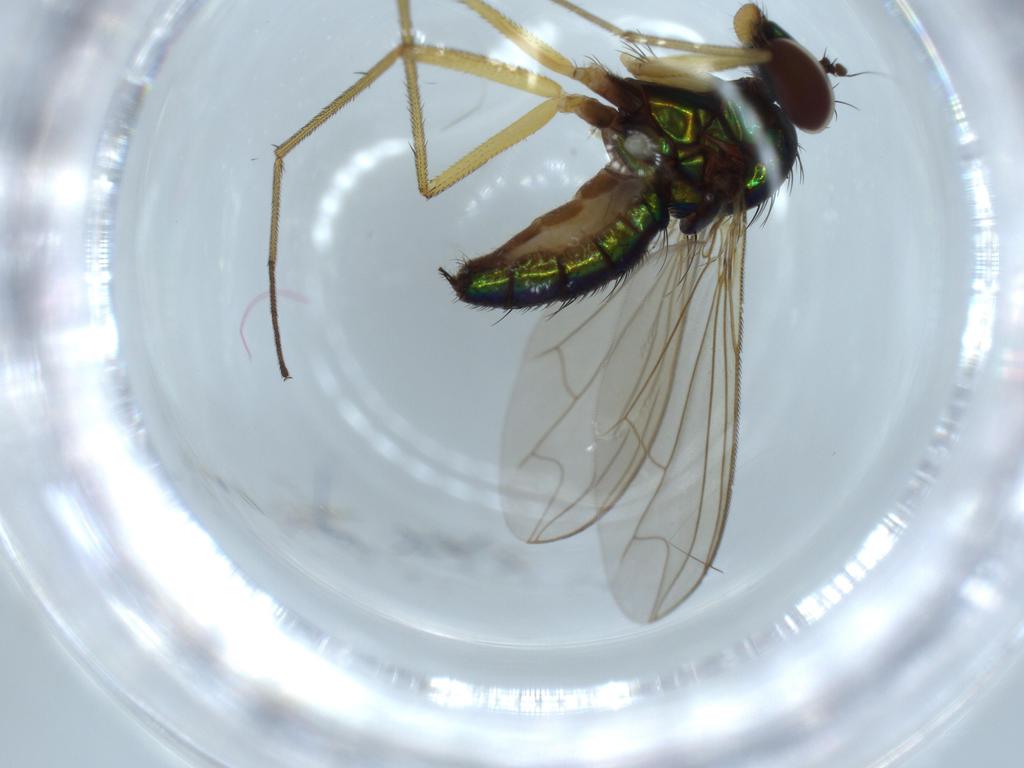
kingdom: Animalia
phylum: Arthropoda
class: Insecta
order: Diptera
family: Dolichopodidae
